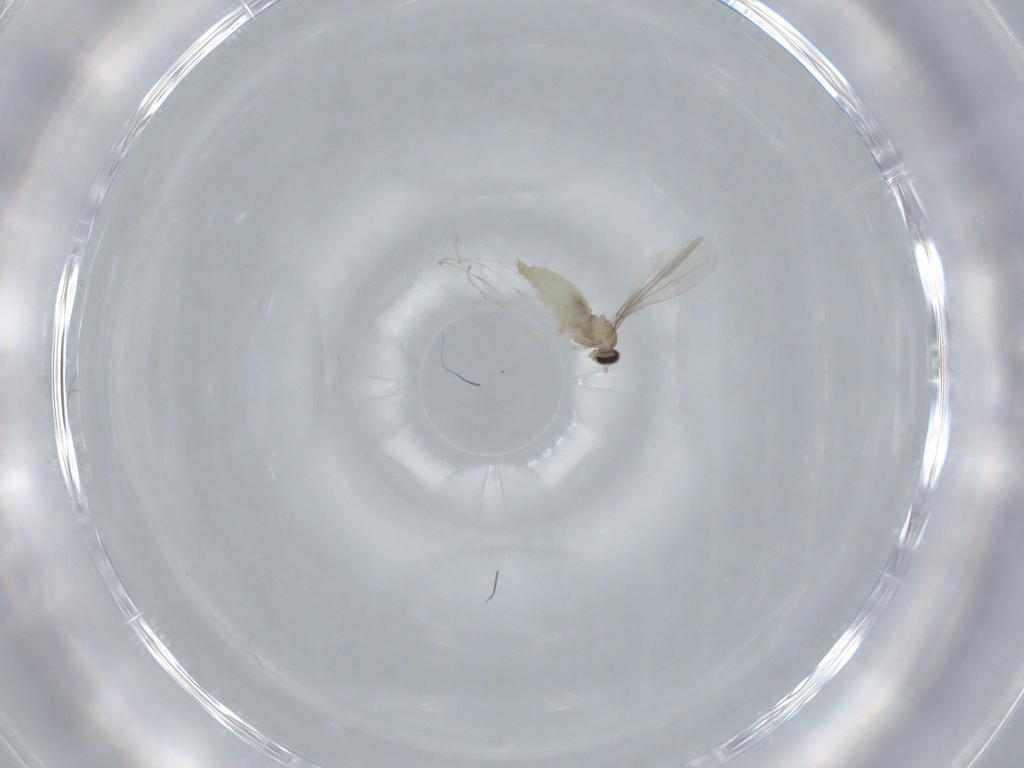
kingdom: Animalia
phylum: Arthropoda
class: Insecta
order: Diptera
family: Cecidomyiidae
